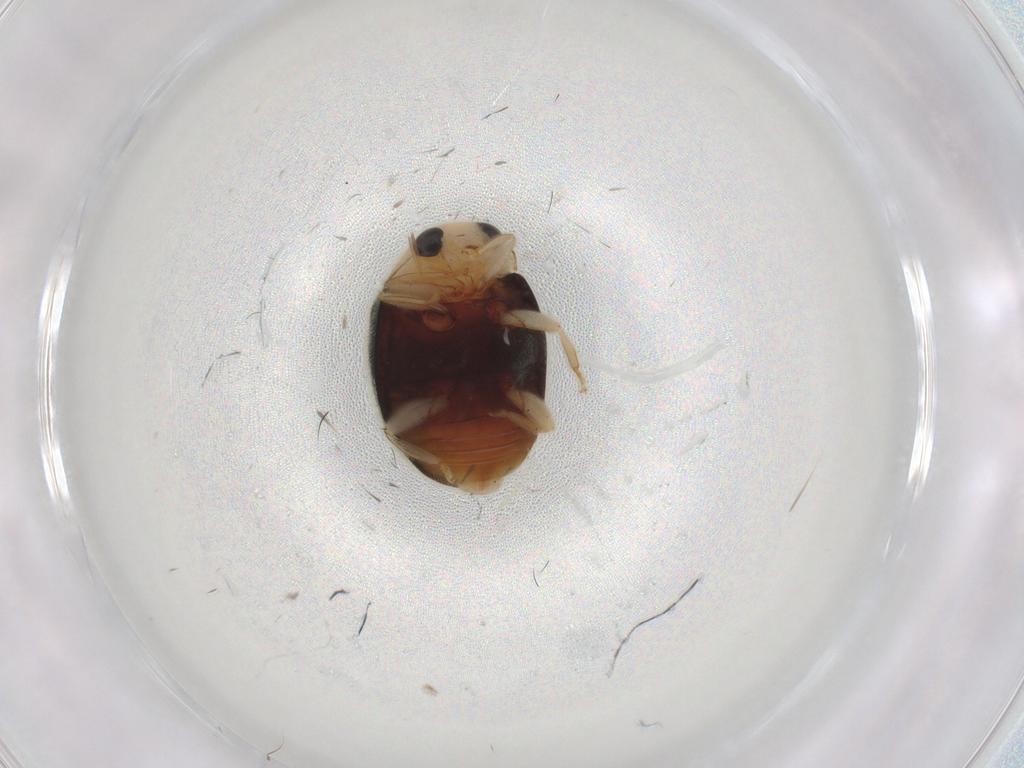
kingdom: Animalia
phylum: Arthropoda
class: Insecta
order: Coleoptera
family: Coccinellidae
